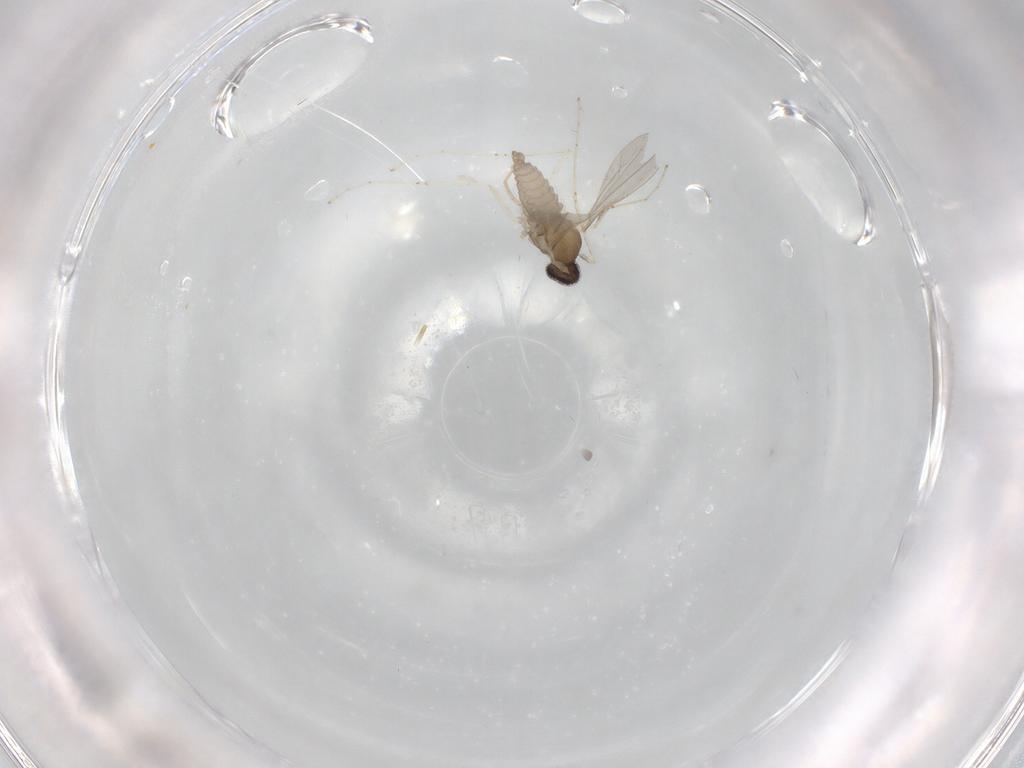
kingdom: Animalia
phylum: Arthropoda
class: Insecta
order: Diptera
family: Cecidomyiidae
